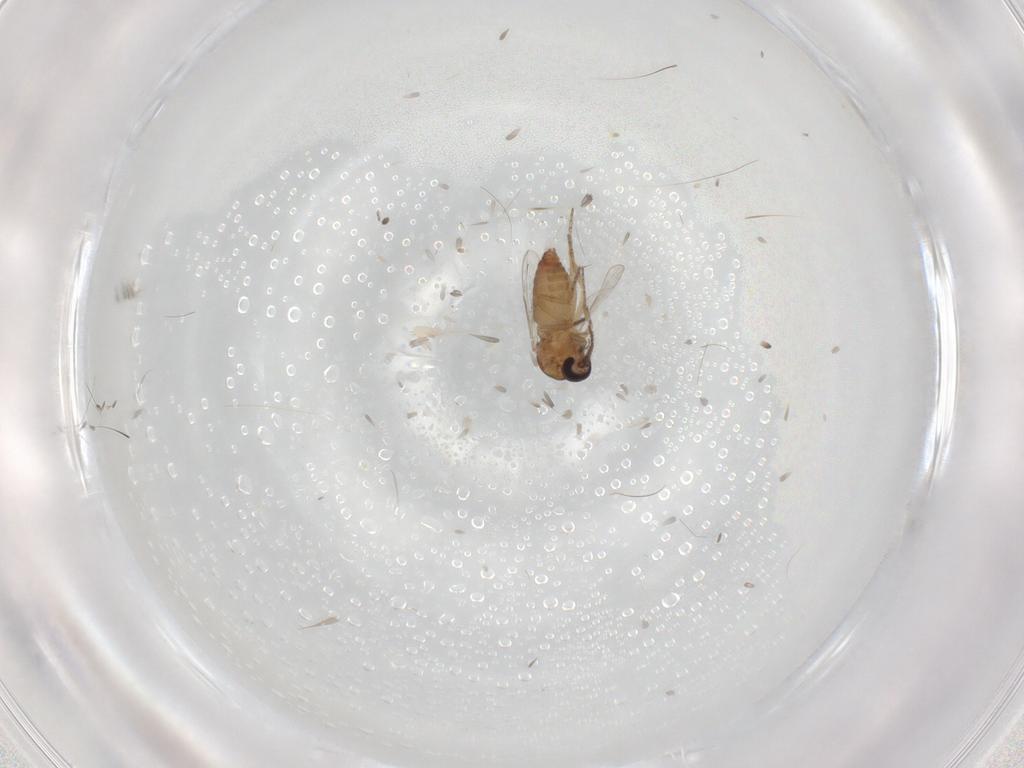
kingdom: Animalia
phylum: Arthropoda
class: Insecta
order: Diptera
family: Ceratopogonidae
